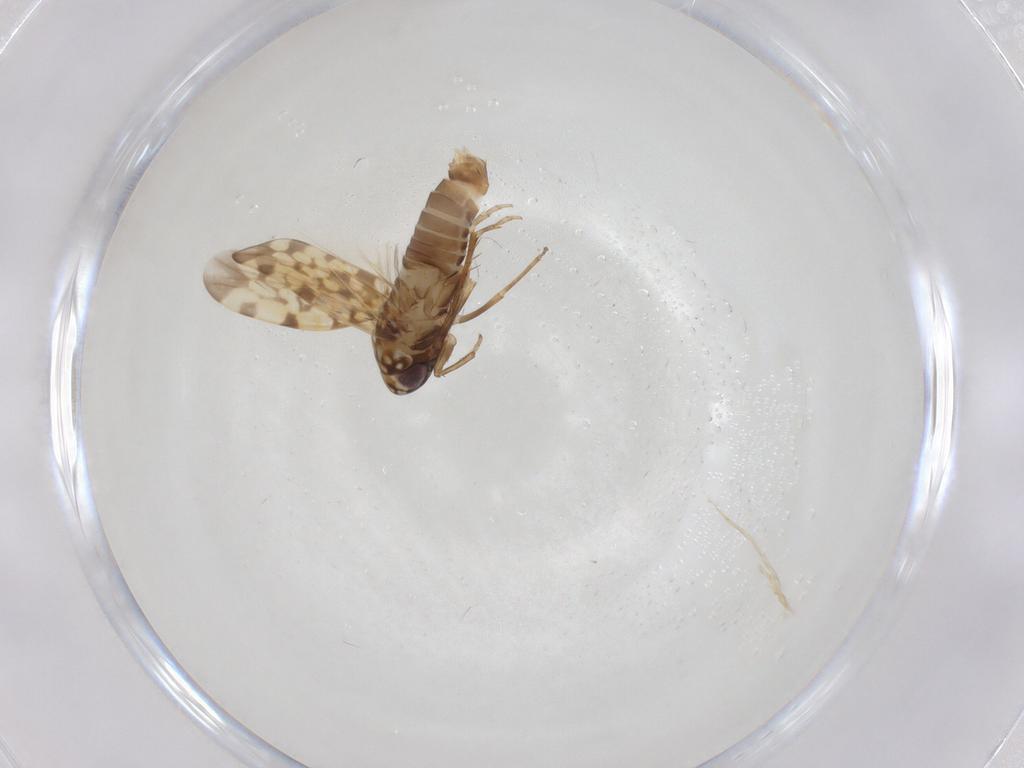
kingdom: Animalia
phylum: Arthropoda
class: Insecta
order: Hemiptera
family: Cicadellidae
